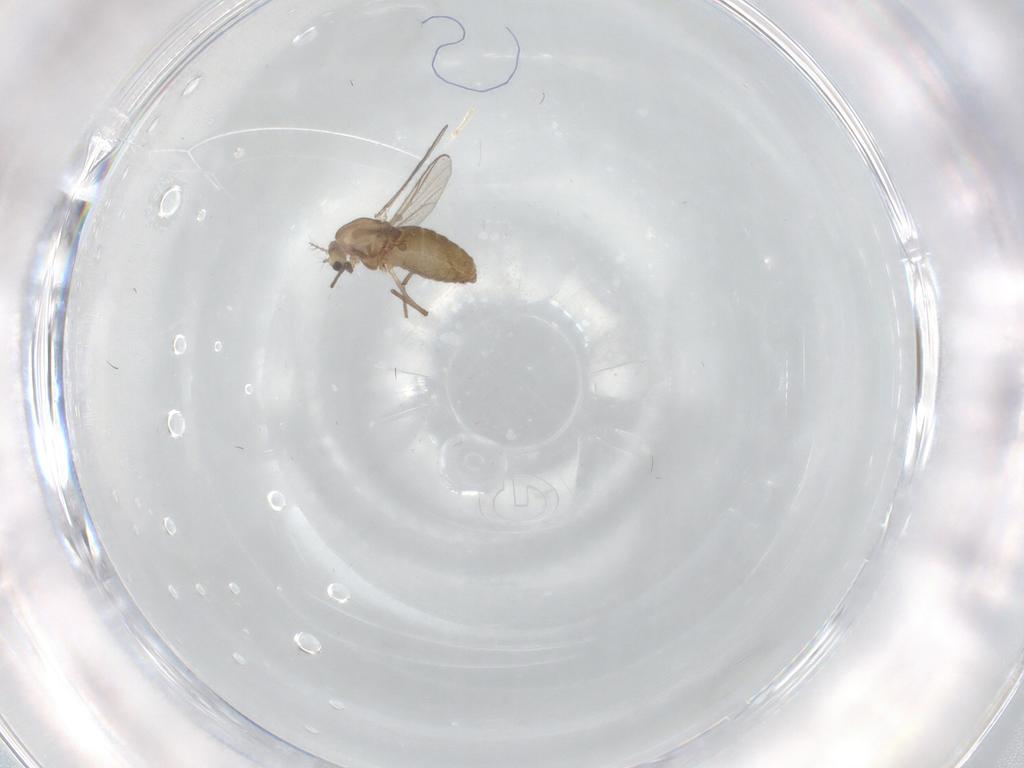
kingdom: Animalia
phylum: Arthropoda
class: Insecta
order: Diptera
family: Chironomidae
